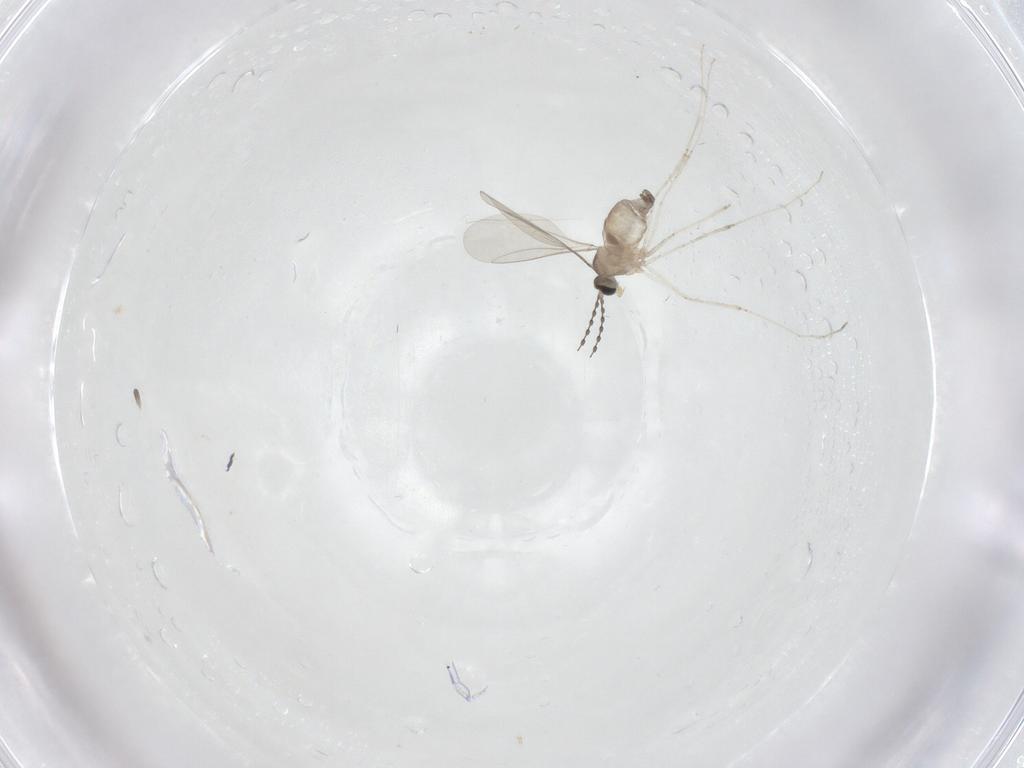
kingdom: Animalia
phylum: Arthropoda
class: Insecta
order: Diptera
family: Cecidomyiidae
